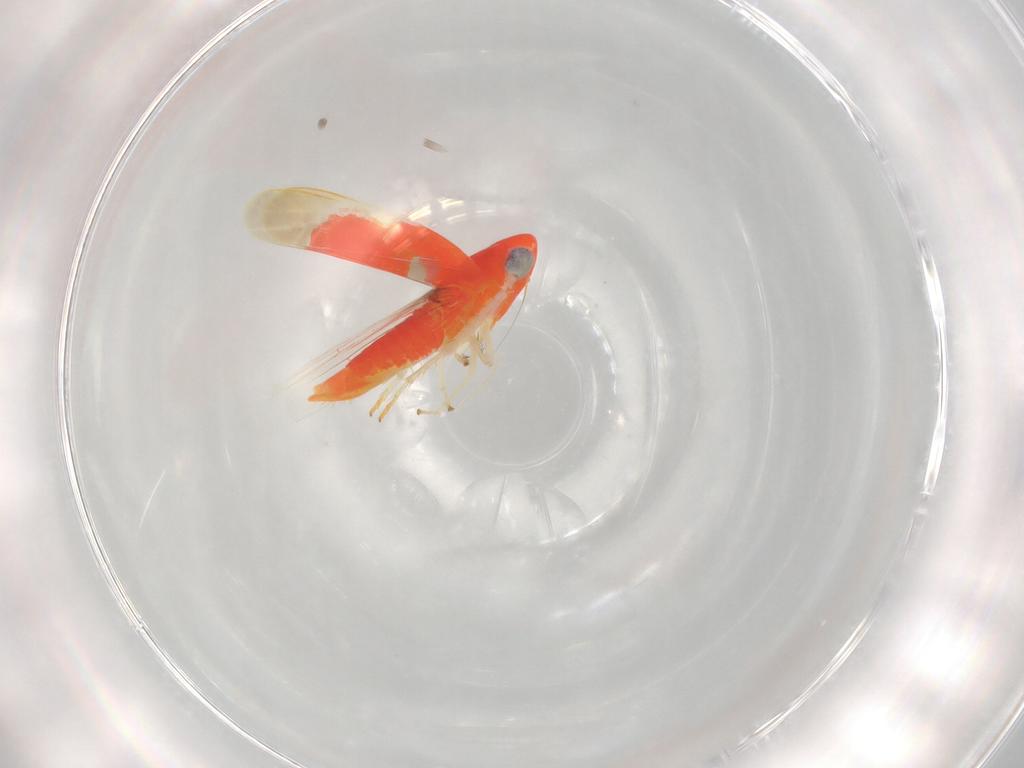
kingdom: Animalia
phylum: Arthropoda
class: Insecta
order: Hemiptera
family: Cicadellidae
